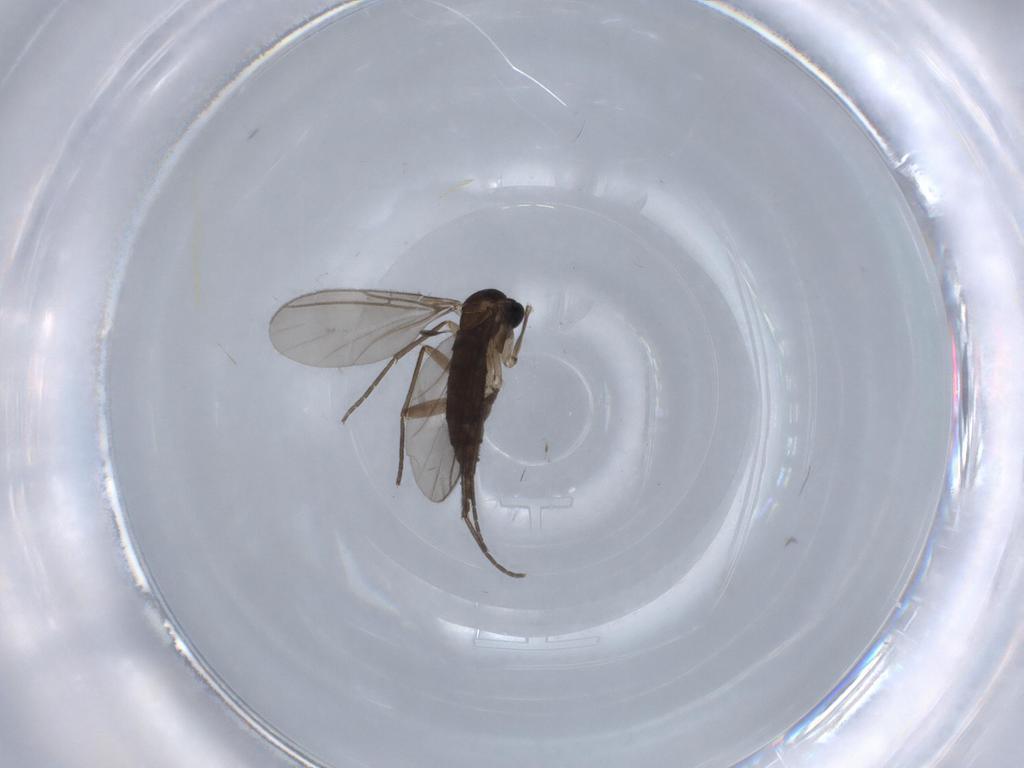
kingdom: Animalia
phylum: Arthropoda
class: Insecta
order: Diptera
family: Sciaridae
